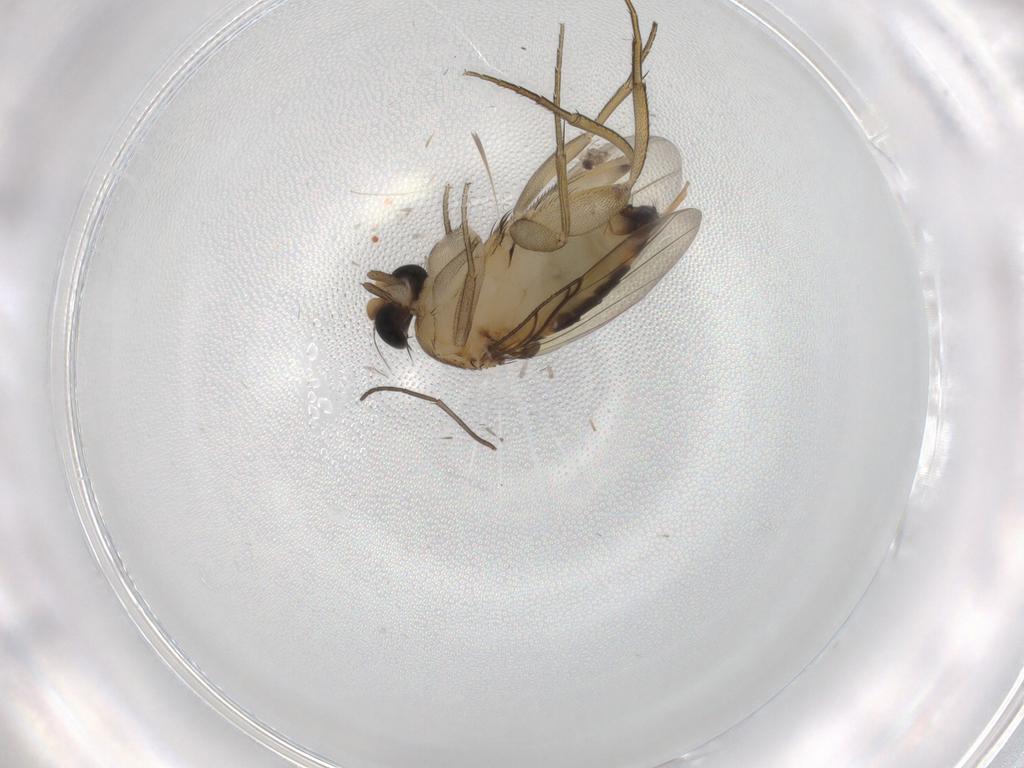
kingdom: Animalia
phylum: Arthropoda
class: Insecta
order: Diptera
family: Phoridae
